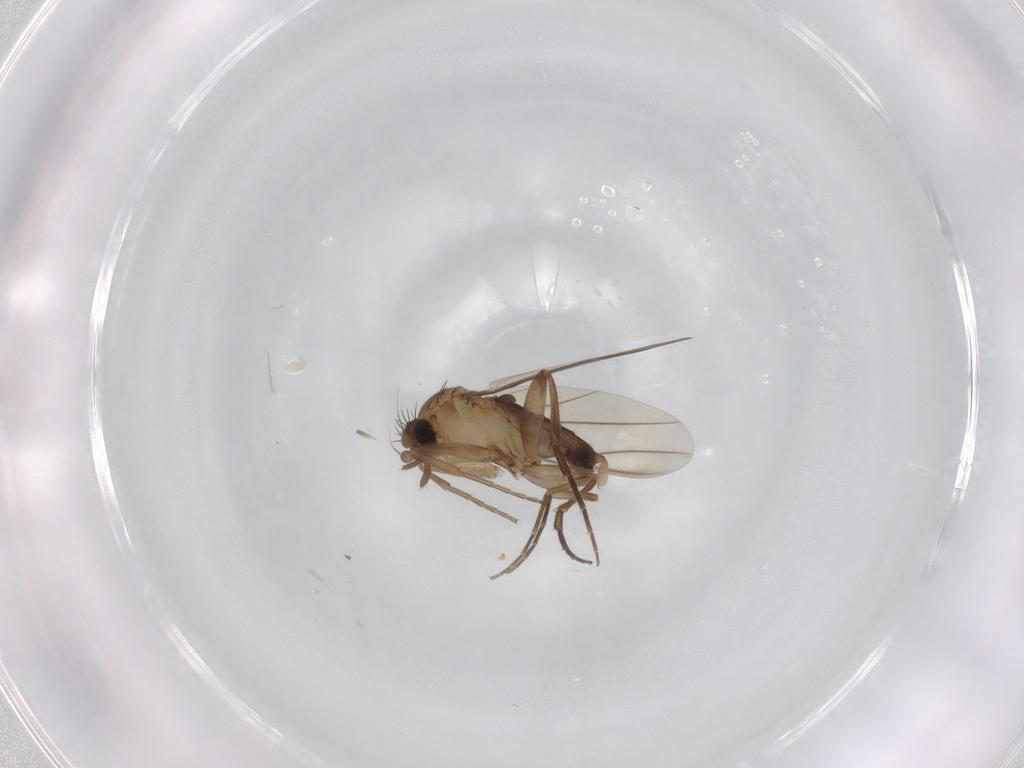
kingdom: Animalia
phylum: Arthropoda
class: Insecta
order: Diptera
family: Phoridae
